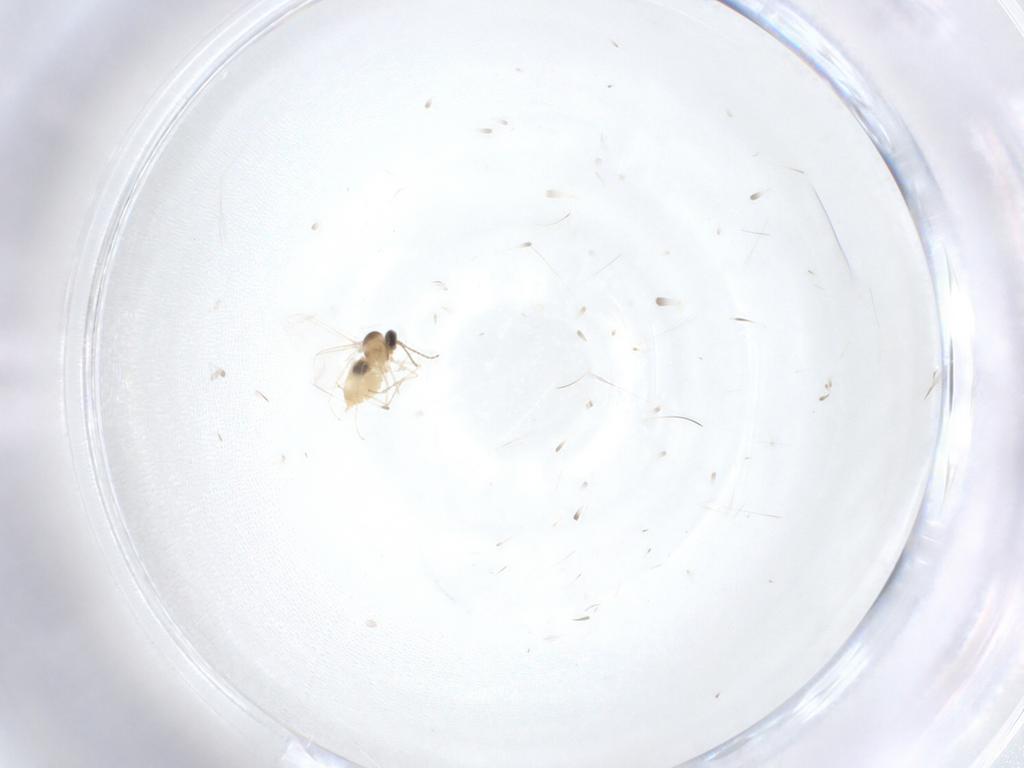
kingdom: Animalia
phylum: Arthropoda
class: Insecta
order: Diptera
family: Cecidomyiidae
